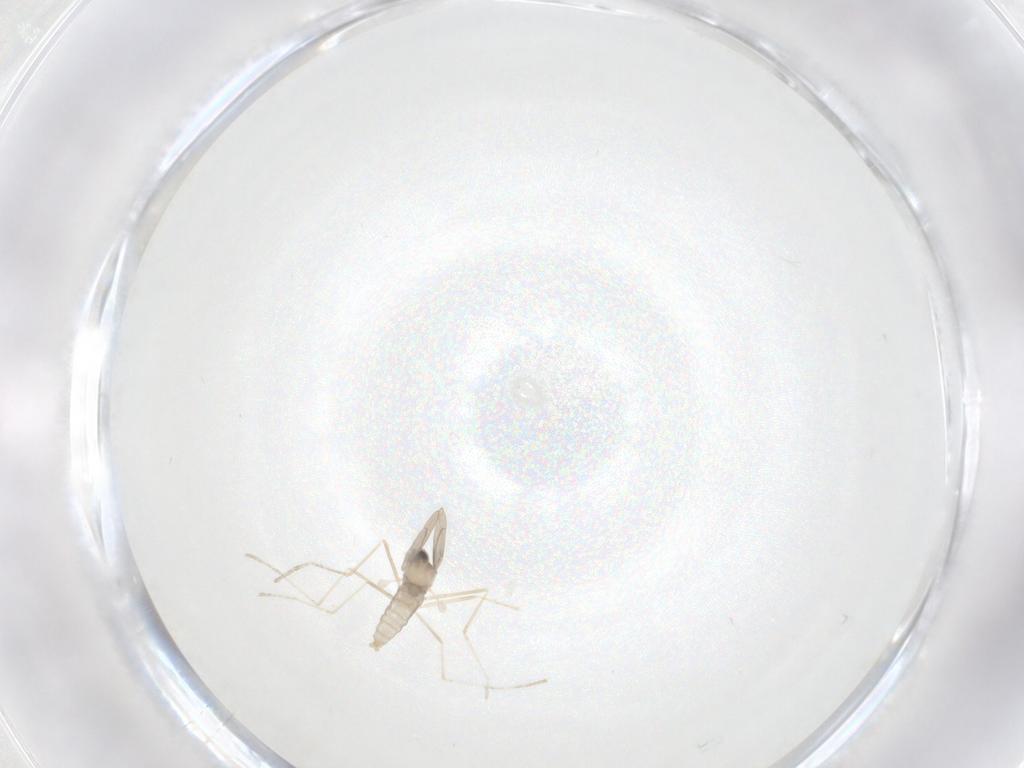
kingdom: Animalia
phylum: Arthropoda
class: Insecta
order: Diptera
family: Cecidomyiidae
